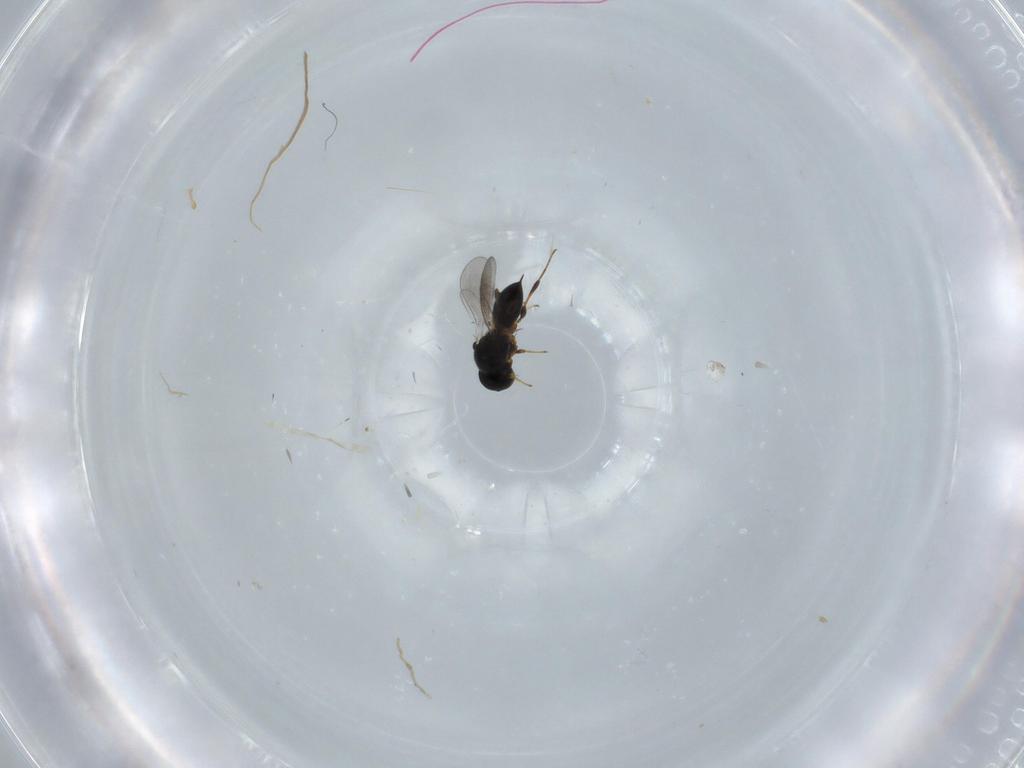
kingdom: Animalia
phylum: Arthropoda
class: Insecta
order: Hymenoptera
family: Platygastridae
